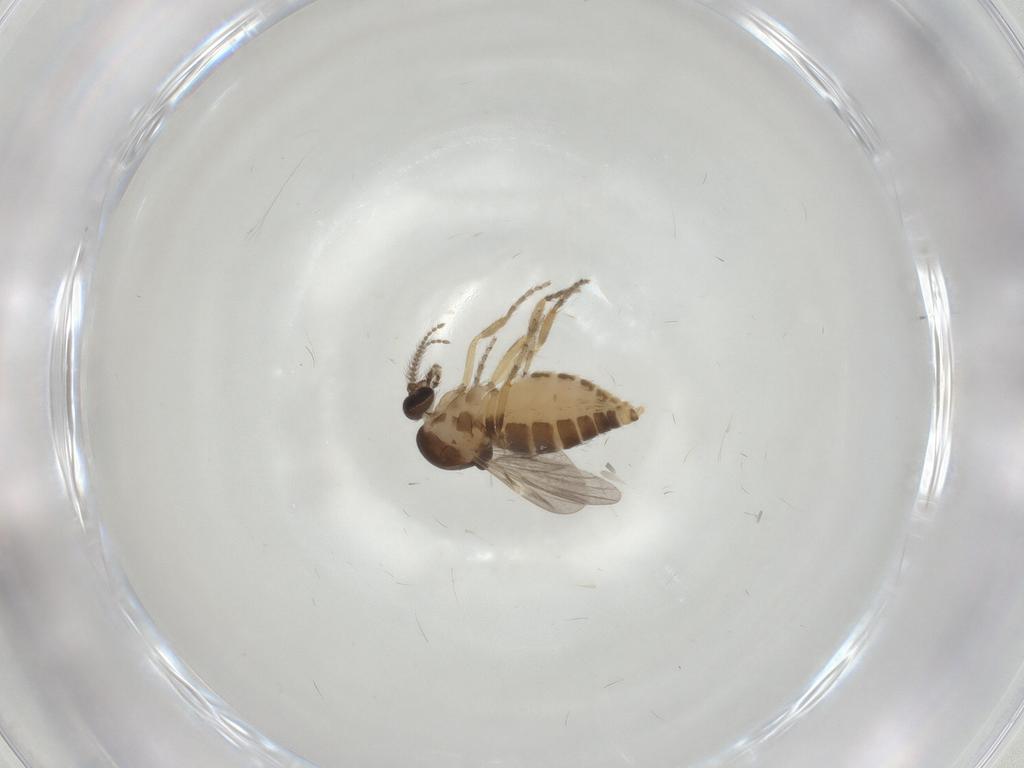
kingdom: Animalia
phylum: Arthropoda
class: Insecta
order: Diptera
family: Ceratopogonidae
